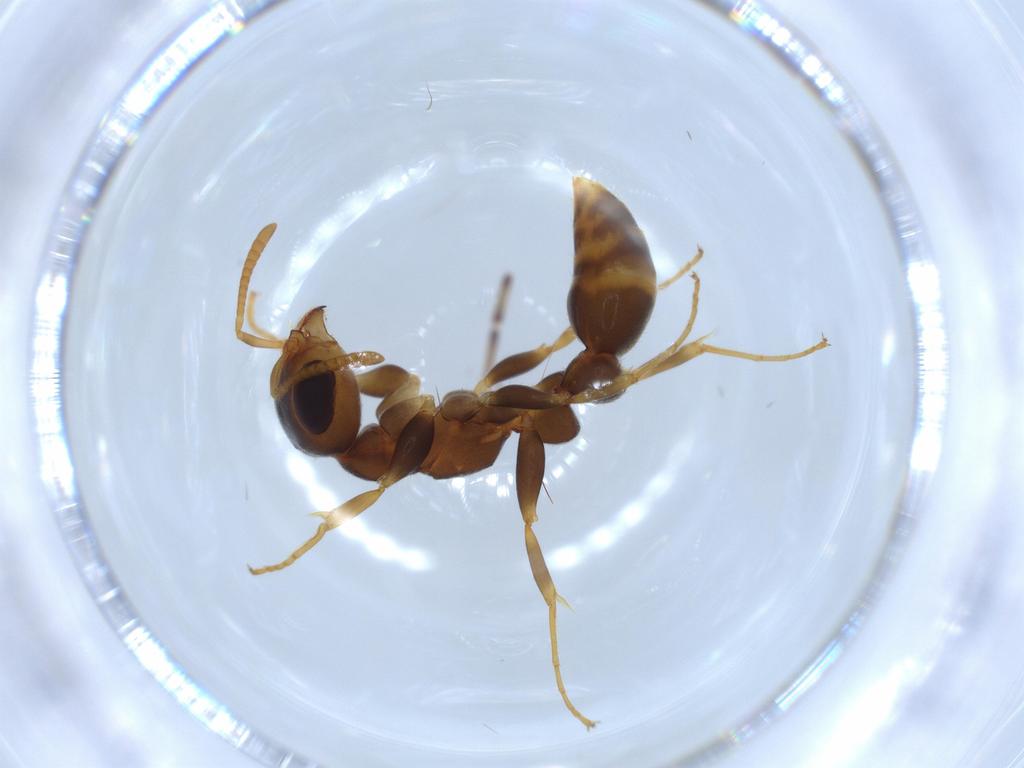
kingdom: Animalia
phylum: Arthropoda
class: Insecta
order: Hymenoptera
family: Formicidae
